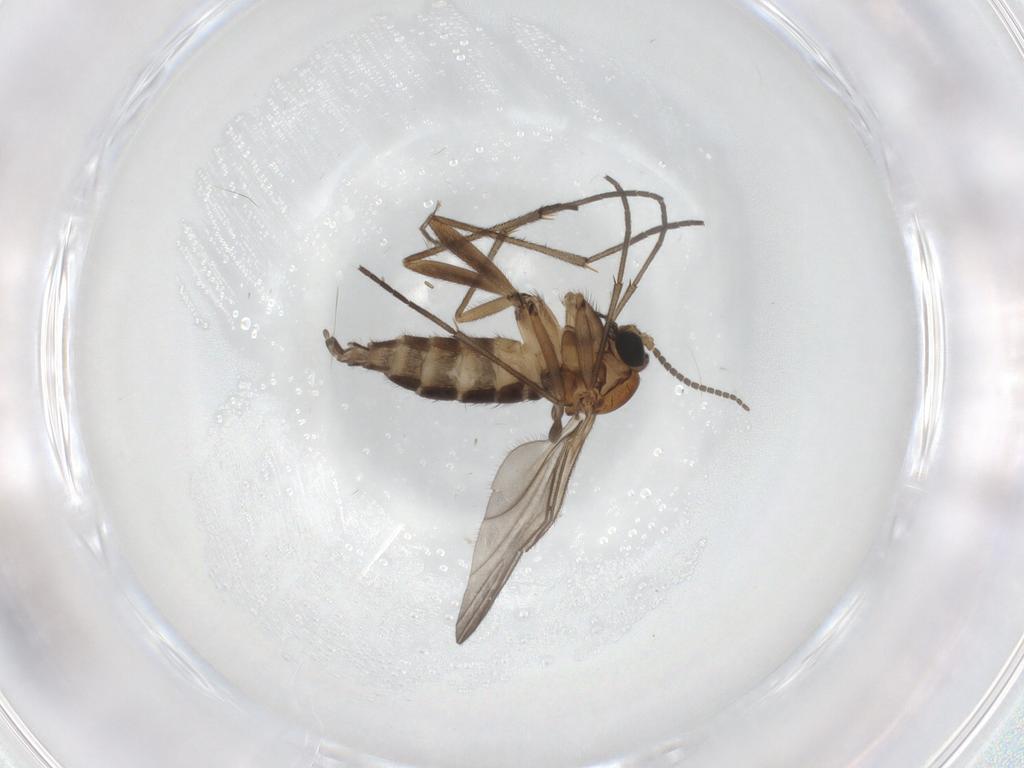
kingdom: Animalia
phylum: Arthropoda
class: Insecta
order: Diptera
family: Sciaridae
